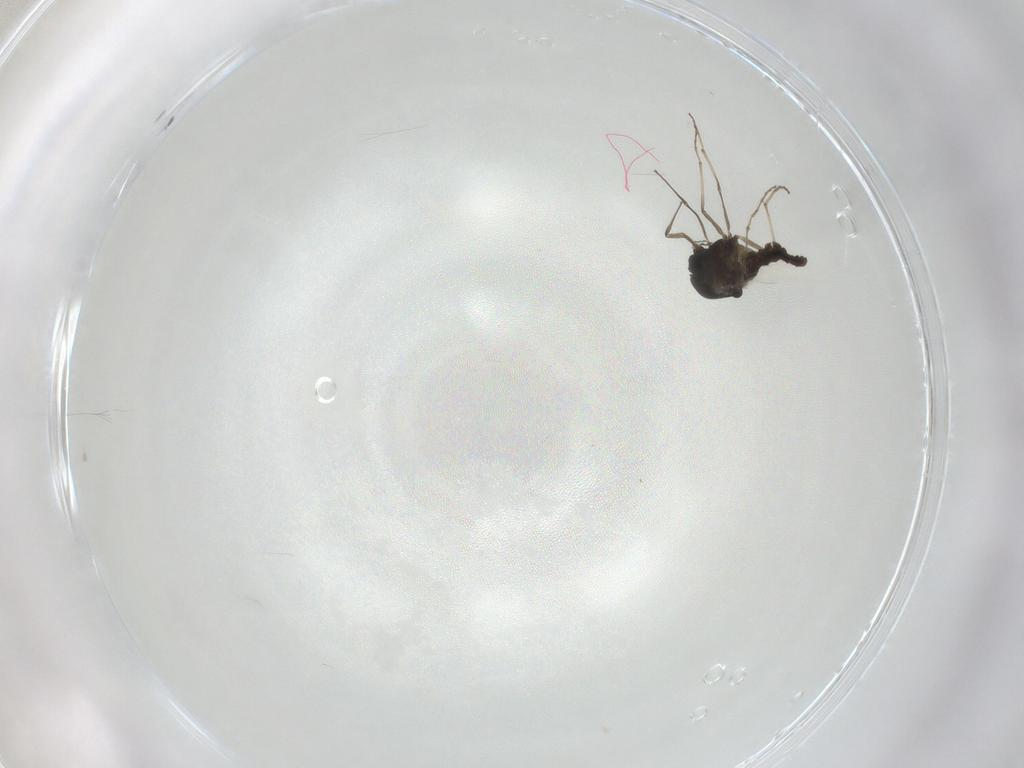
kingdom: Animalia
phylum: Arthropoda
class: Insecta
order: Diptera
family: Chironomidae
